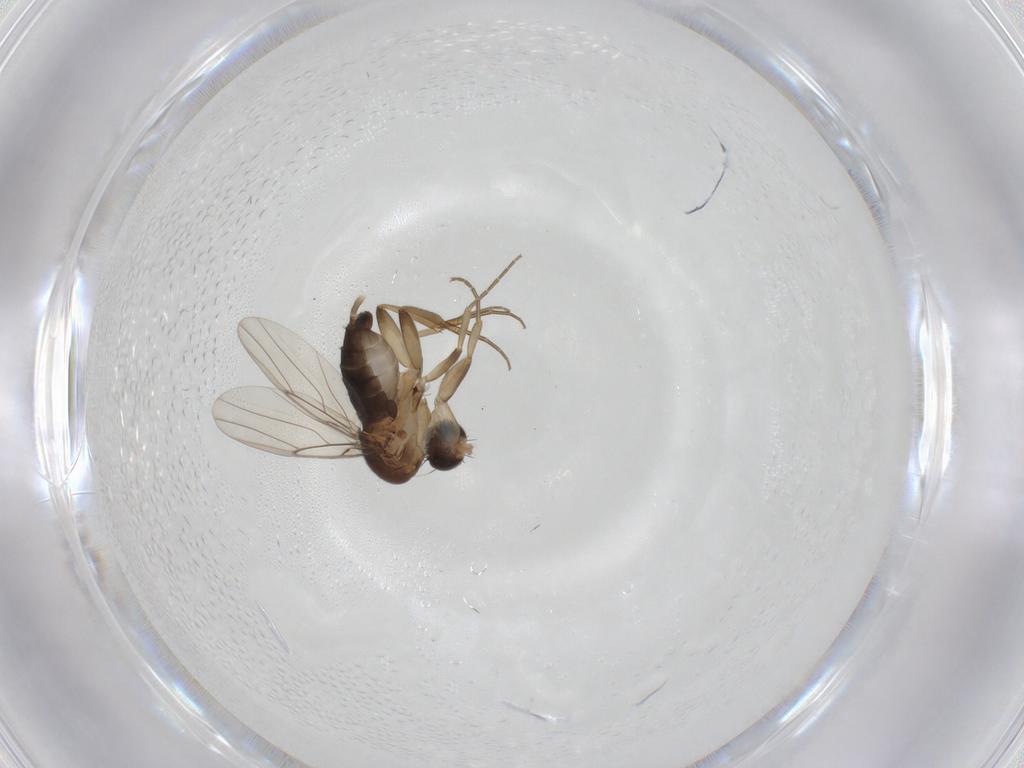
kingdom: Animalia
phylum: Arthropoda
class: Insecta
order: Diptera
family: Phoridae
